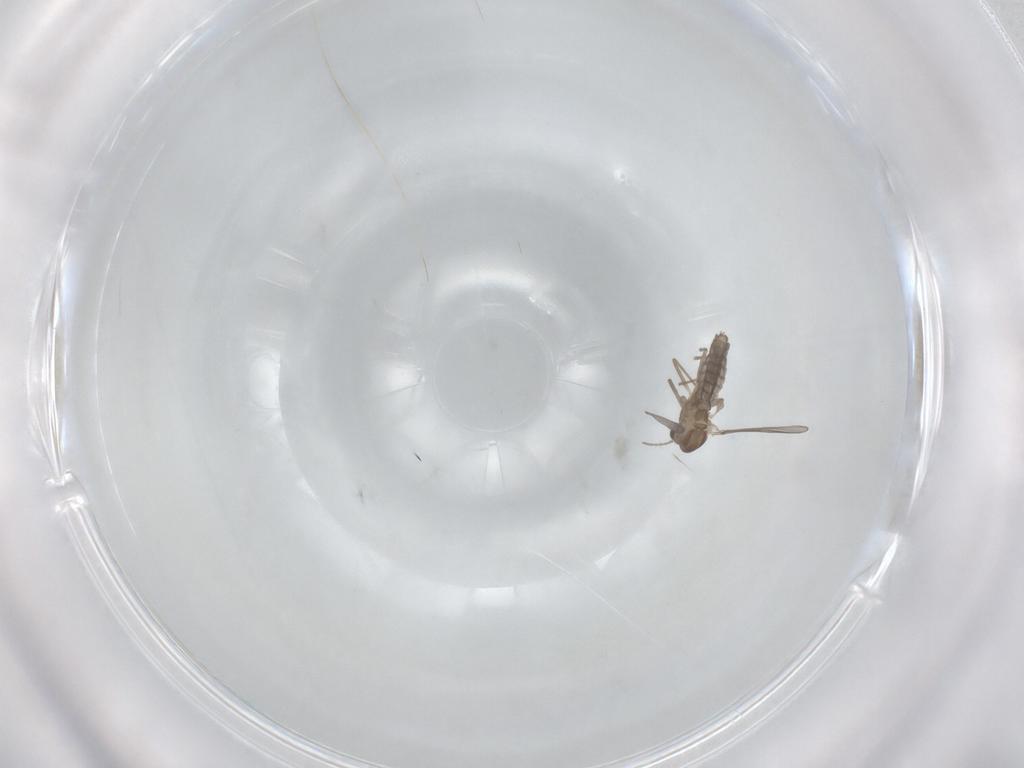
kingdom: Animalia
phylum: Arthropoda
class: Insecta
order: Diptera
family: Chironomidae
